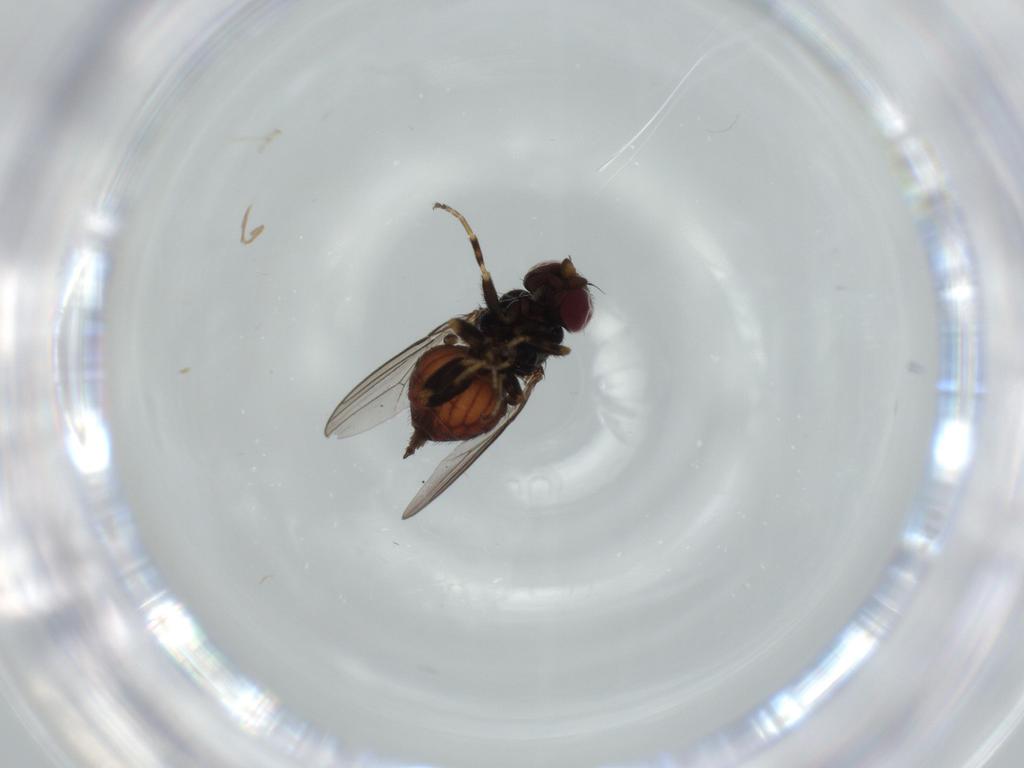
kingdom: Animalia
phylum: Arthropoda
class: Insecta
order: Diptera
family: Chloropidae
